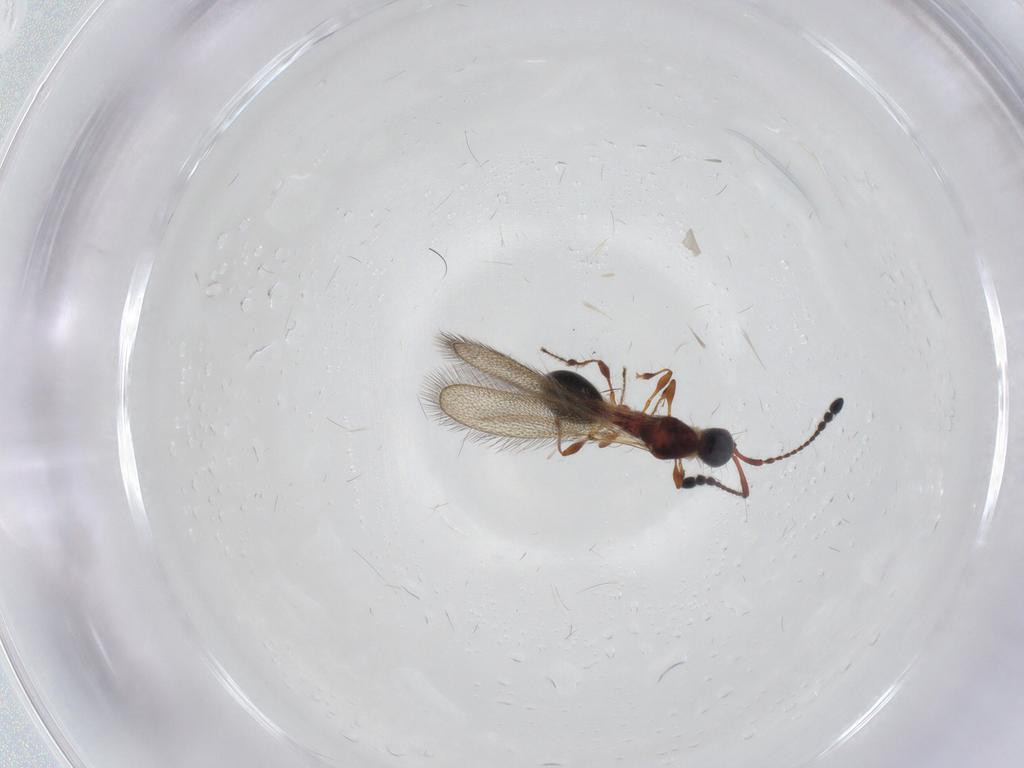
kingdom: Animalia
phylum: Arthropoda
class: Insecta
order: Hymenoptera
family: Diapriidae
